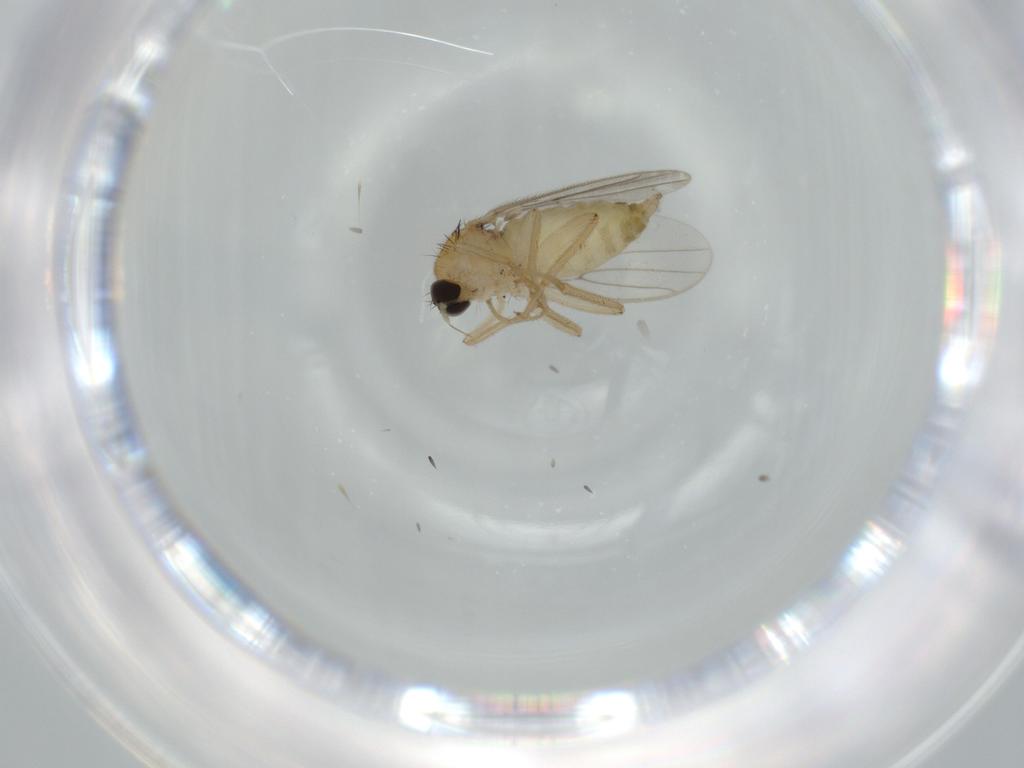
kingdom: Animalia
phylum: Arthropoda
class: Insecta
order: Diptera
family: Hybotidae
